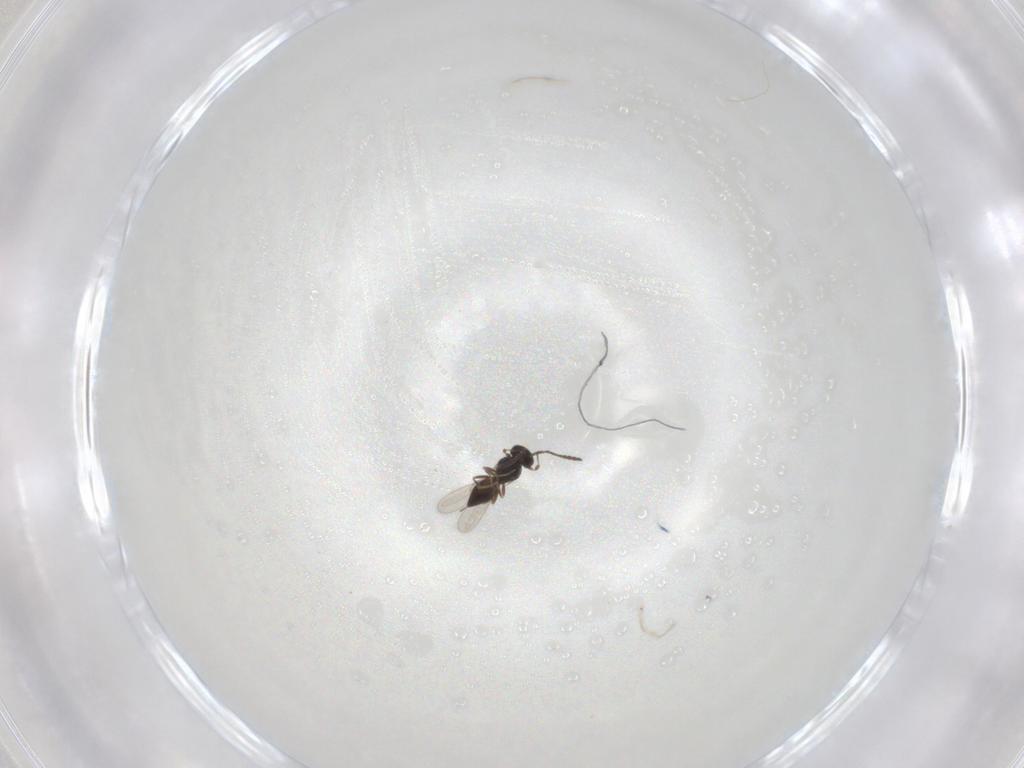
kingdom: Animalia
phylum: Arthropoda
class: Insecta
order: Hymenoptera
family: Scelionidae
